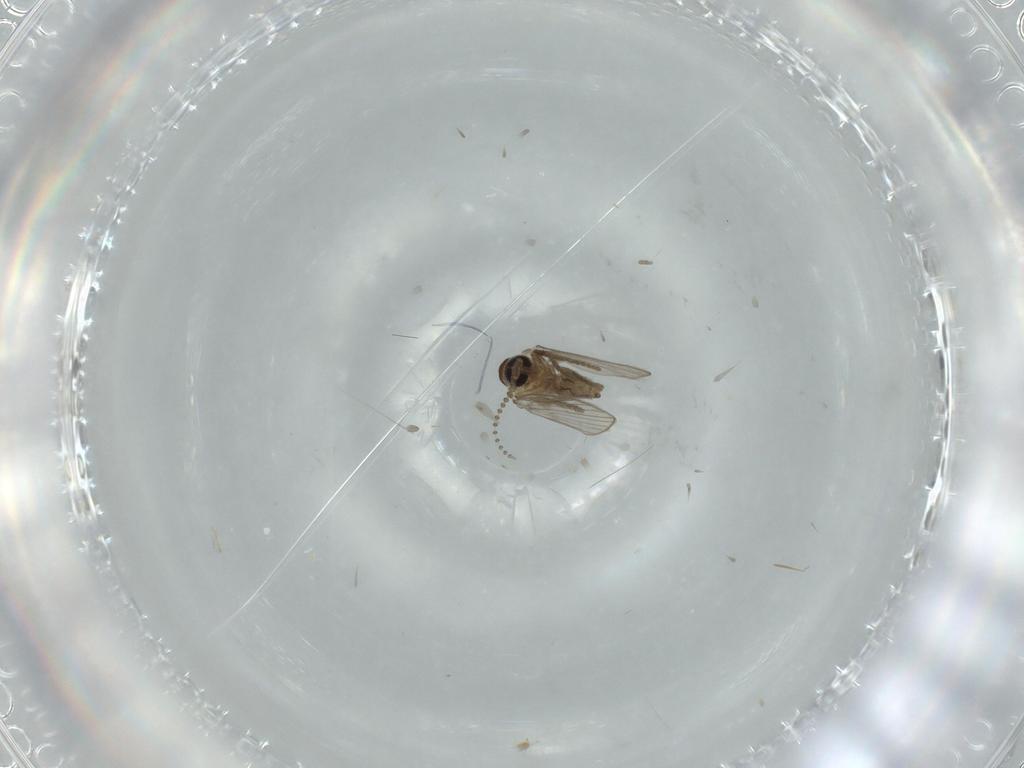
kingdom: Animalia
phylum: Arthropoda
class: Insecta
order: Diptera
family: Psychodidae
